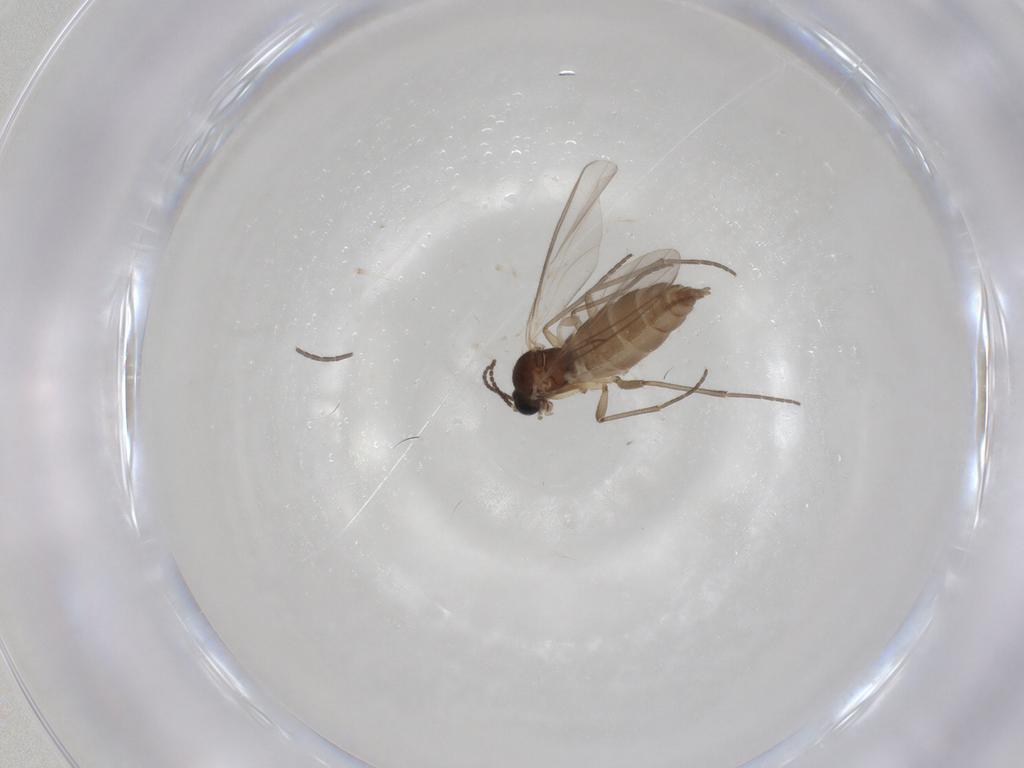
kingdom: Animalia
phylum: Arthropoda
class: Insecta
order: Diptera
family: Sciaridae
